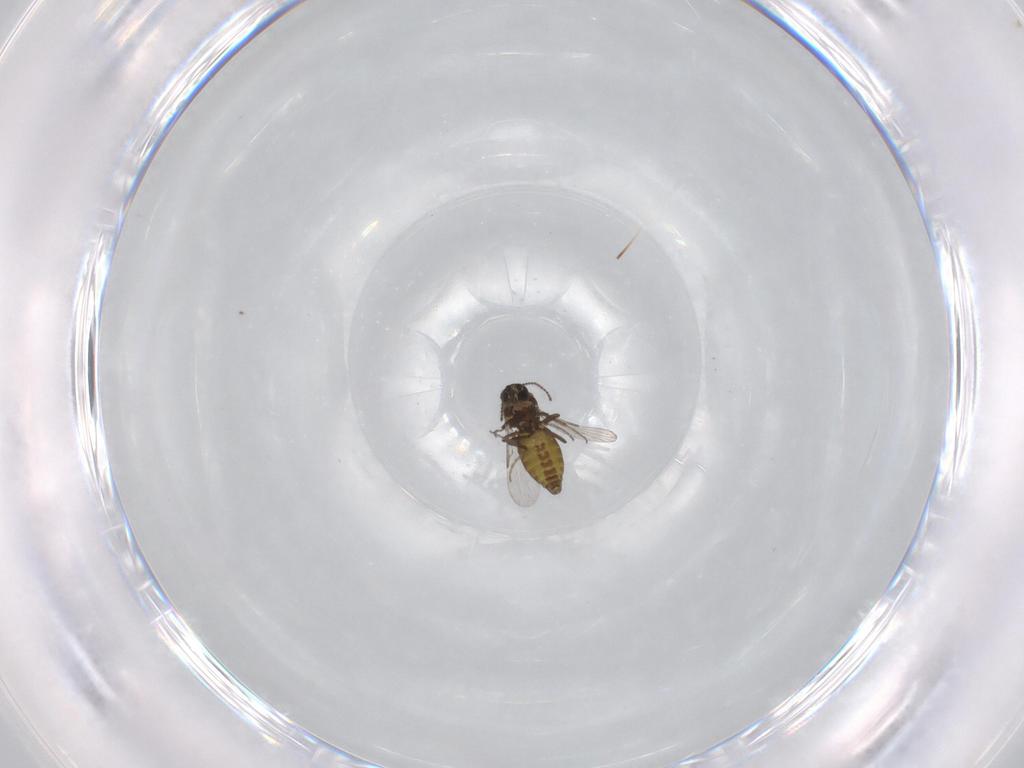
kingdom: Animalia
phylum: Arthropoda
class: Insecta
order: Diptera
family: Ceratopogonidae
